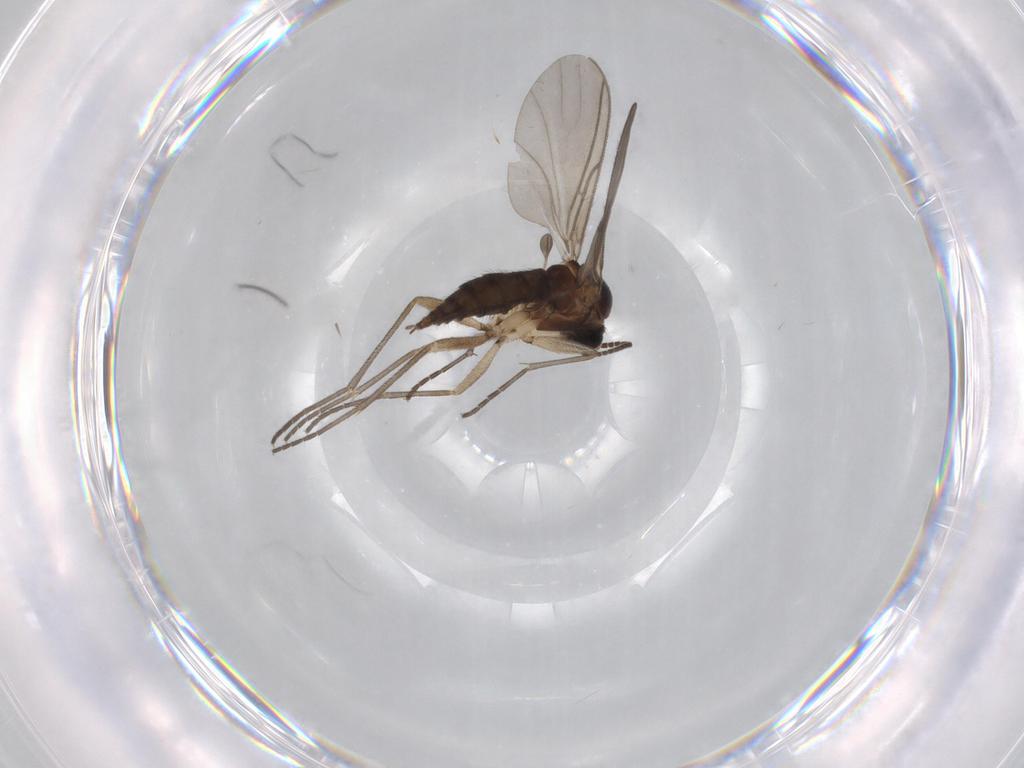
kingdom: Animalia
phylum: Arthropoda
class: Insecta
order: Diptera
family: Sciaridae
